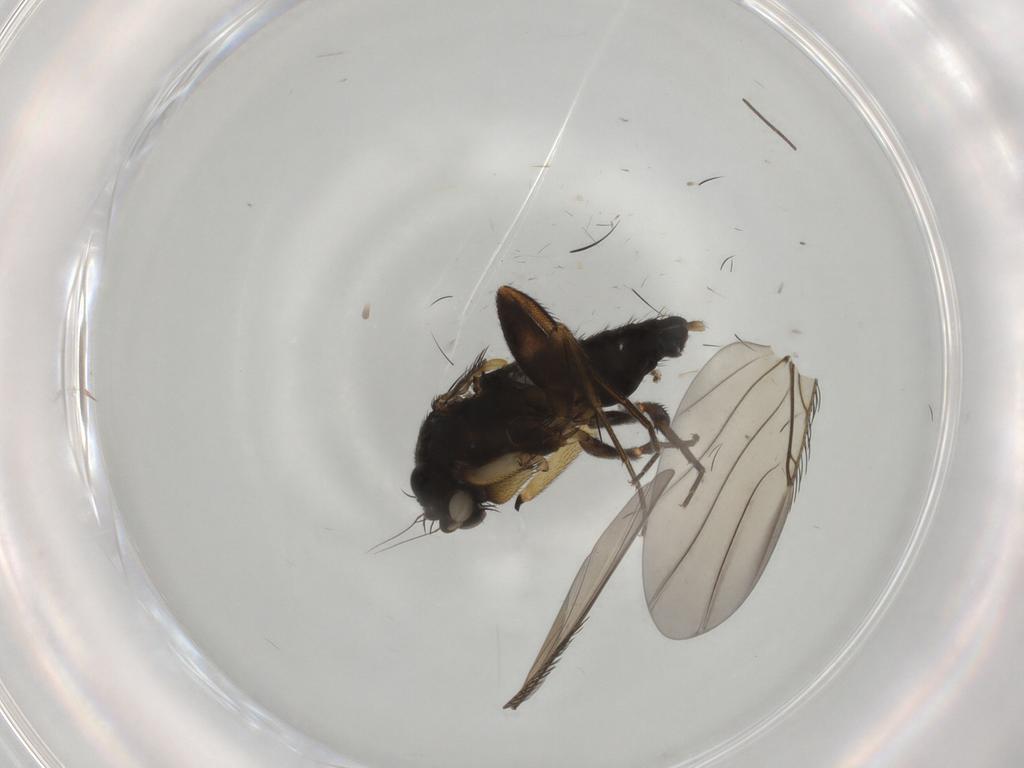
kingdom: Animalia
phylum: Arthropoda
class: Insecta
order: Diptera
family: Phoridae
